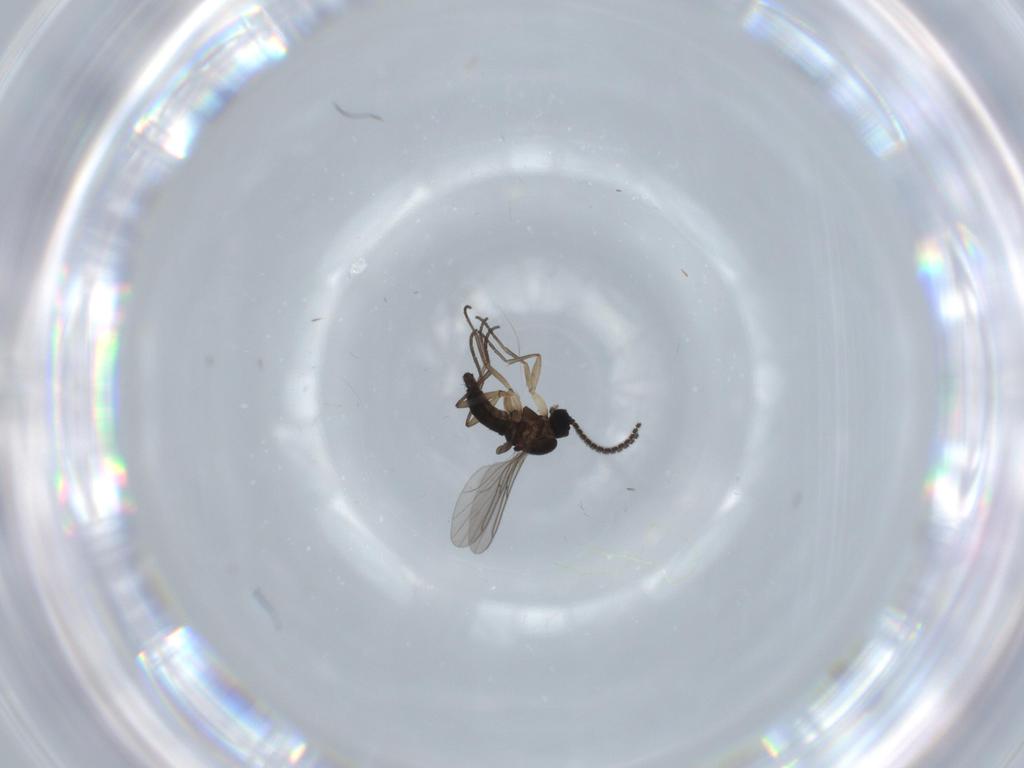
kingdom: Animalia
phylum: Arthropoda
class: Insecta
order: Diptera
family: Sciaridae
